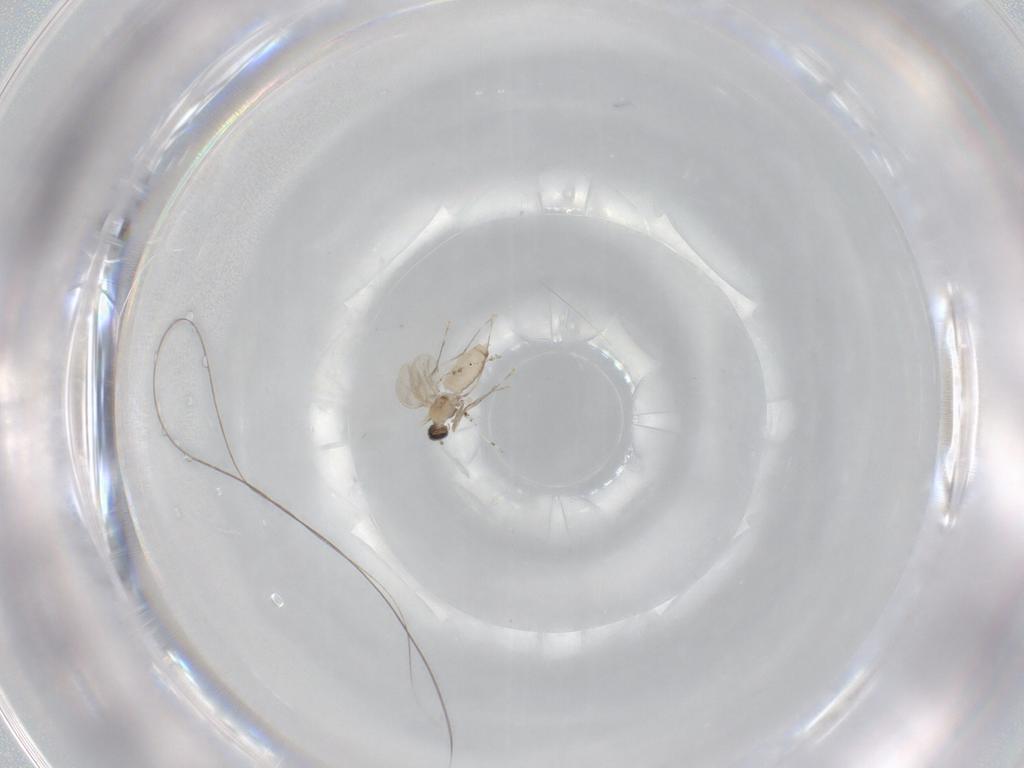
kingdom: Animalia
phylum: Arthropoda
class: Insecta
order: Diptera
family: Cecidomyiidae
